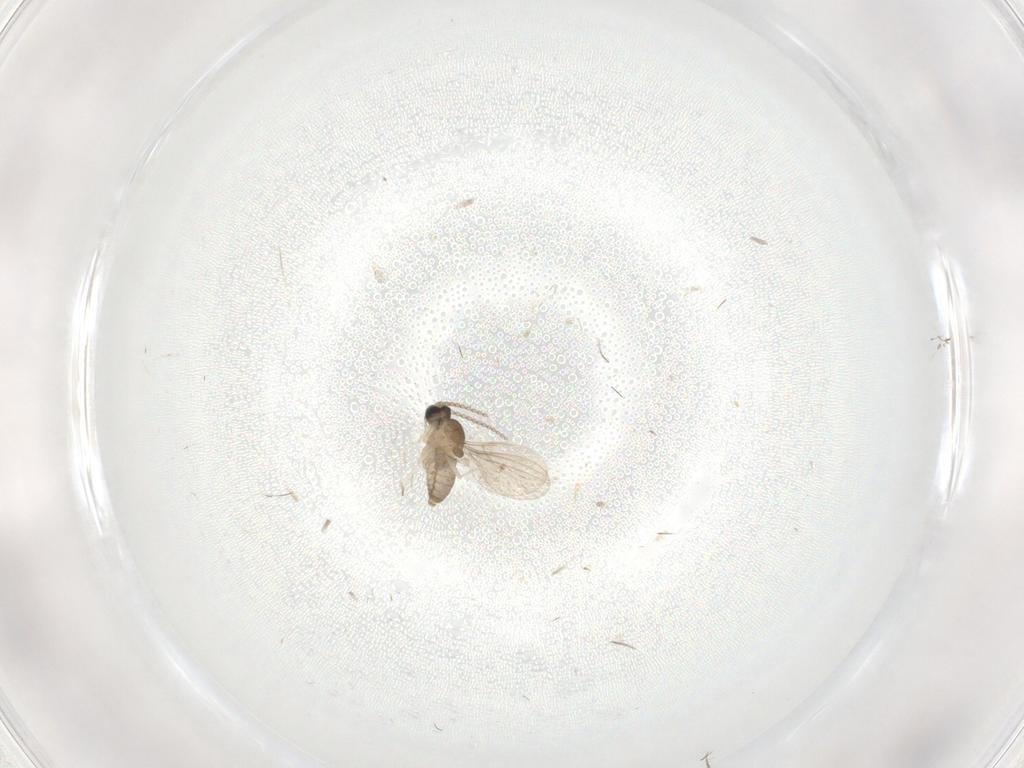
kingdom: Animalia
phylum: Arthropoda
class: Insecta
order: Diptera
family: Cecidomyiidae
